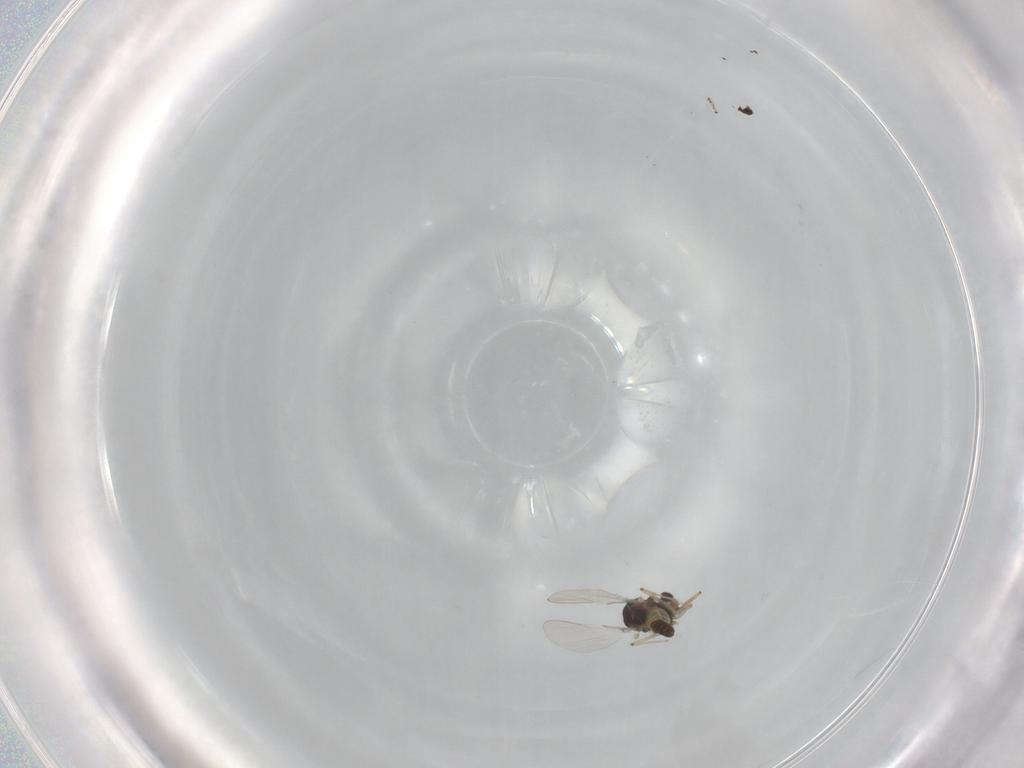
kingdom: Animalia
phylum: Arthropoda
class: Insecta
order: Diptera
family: Chironomidae
